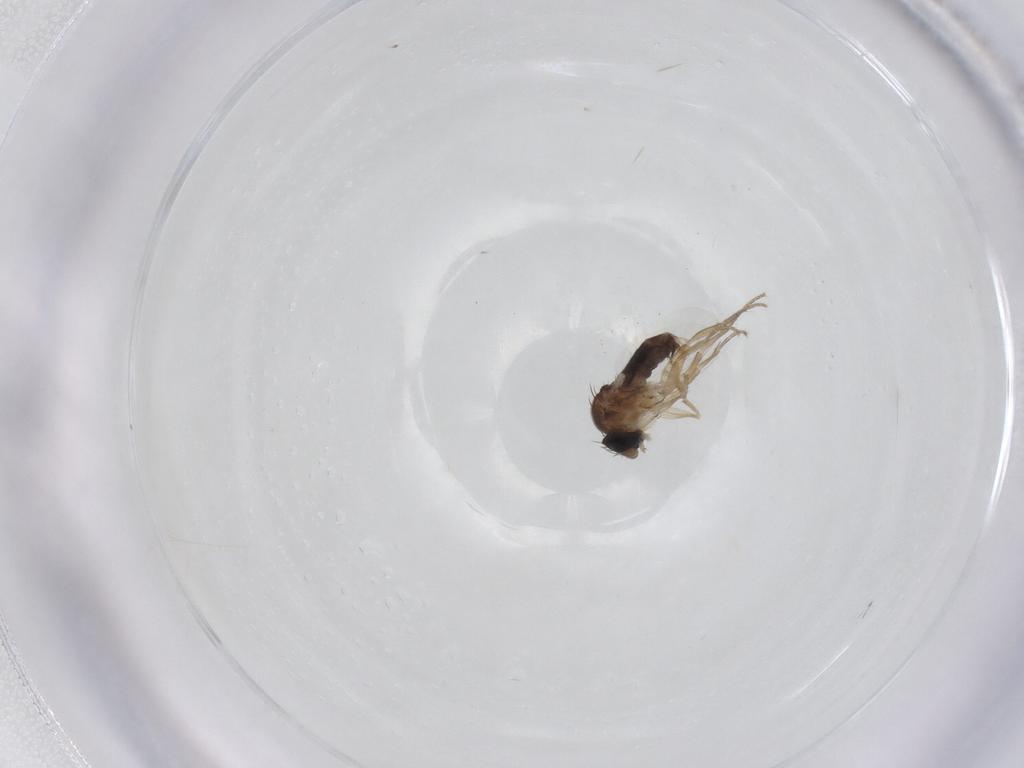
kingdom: Animalia
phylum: Arthropoda
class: Insecta
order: Diptera
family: Phoridae
